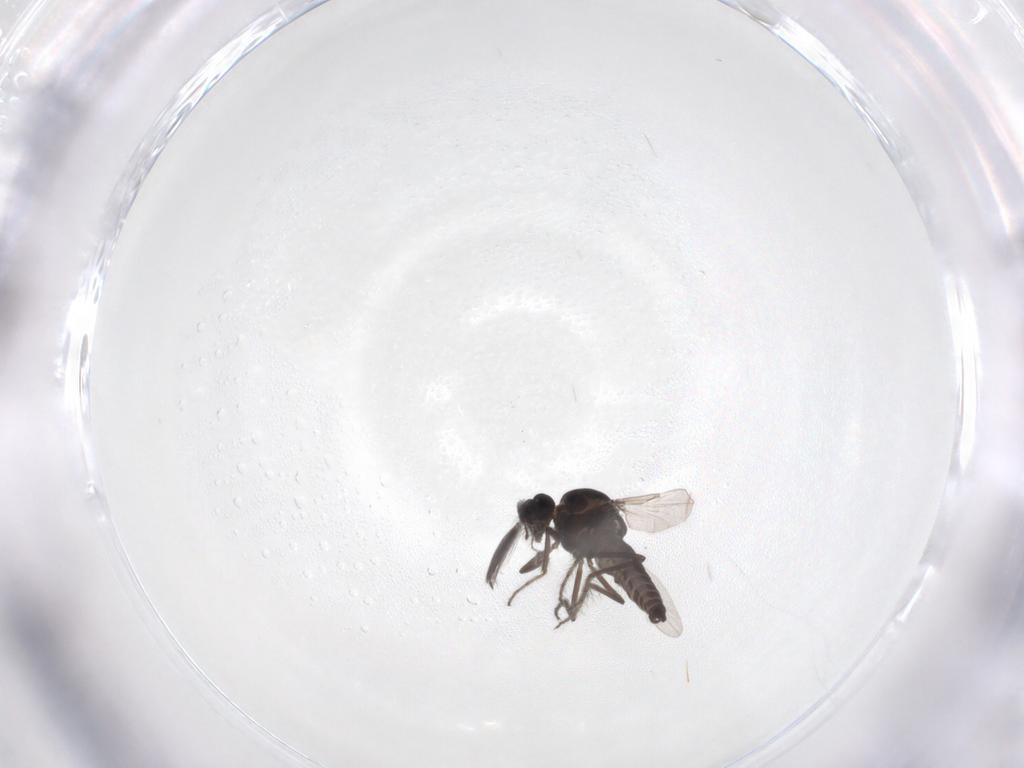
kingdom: Animalia
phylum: Arthropoda
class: Insecta
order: Diptera
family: Ceratopogonidae
